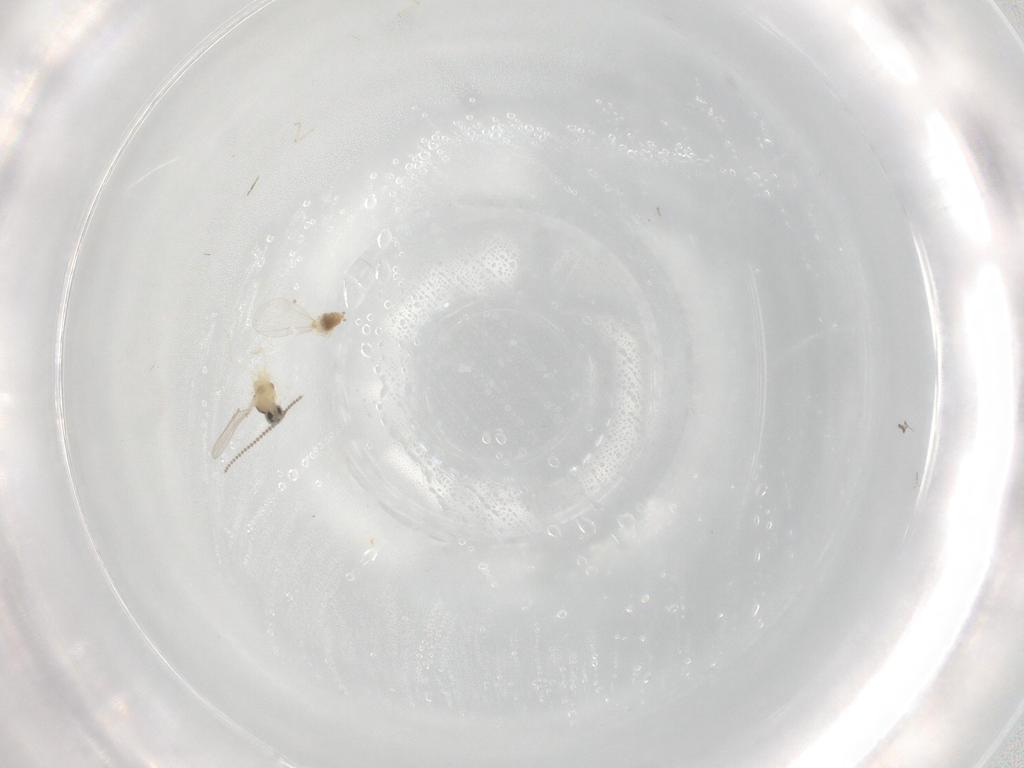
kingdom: Animalia
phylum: Arthropoda
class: Insecta
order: Diptera
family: Cecidomyiidae
